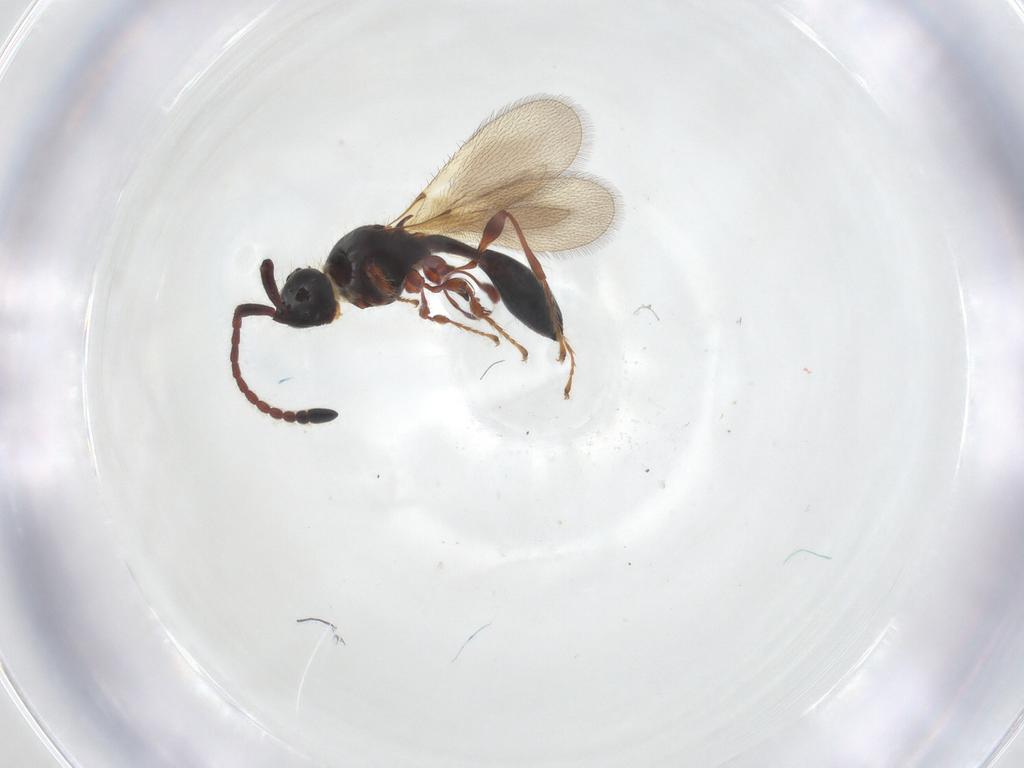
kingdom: Animalia
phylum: Arthropoda
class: Insecta
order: Hymenoptera
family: Diapriidae
